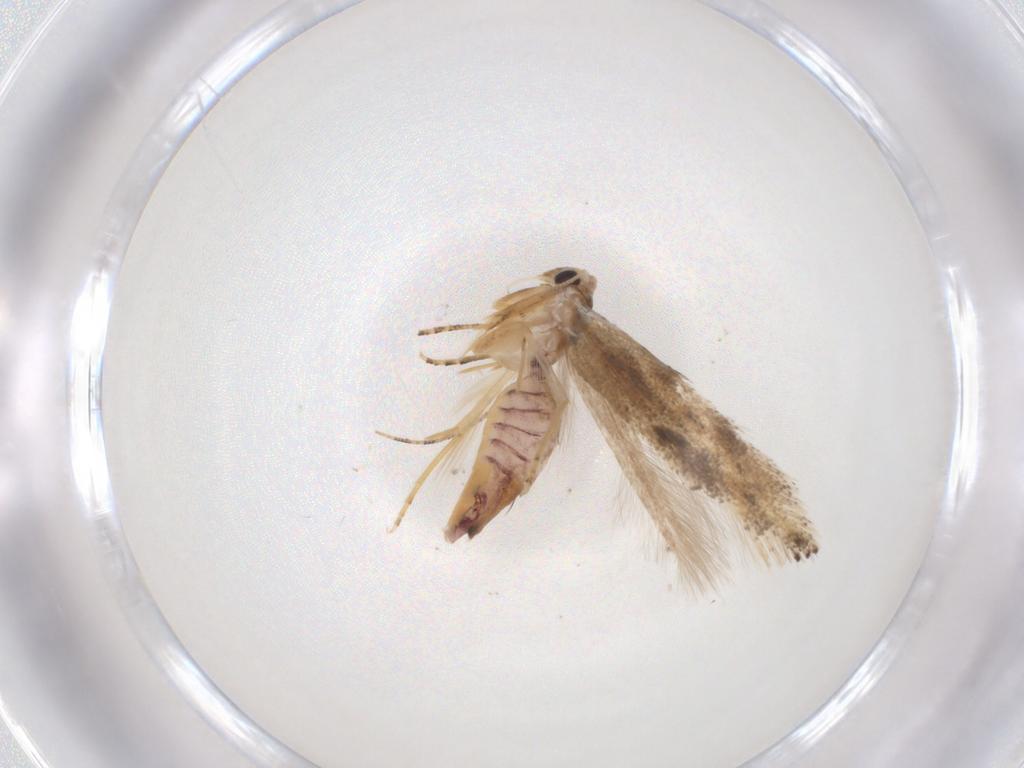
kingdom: Animalia
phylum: Arthropoda
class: Insecta
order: Lepidoptera
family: Bucculatricidae
